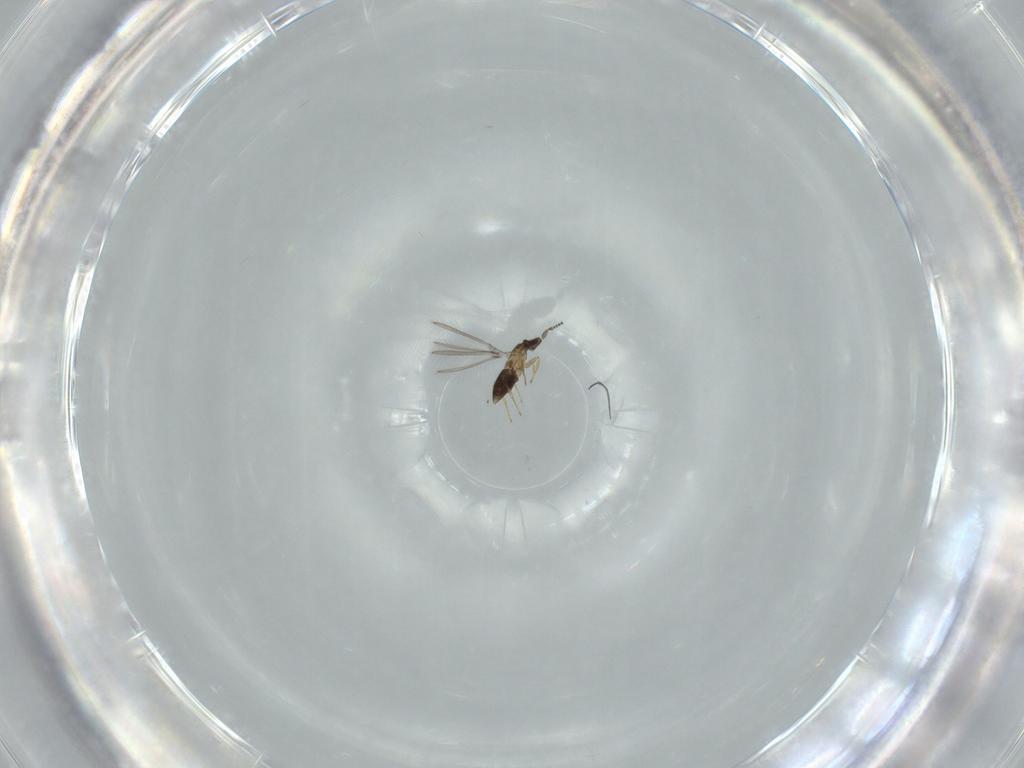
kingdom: Animalia
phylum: Arthropoda
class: Insecta
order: Hymenoptera
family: Mymaridae
